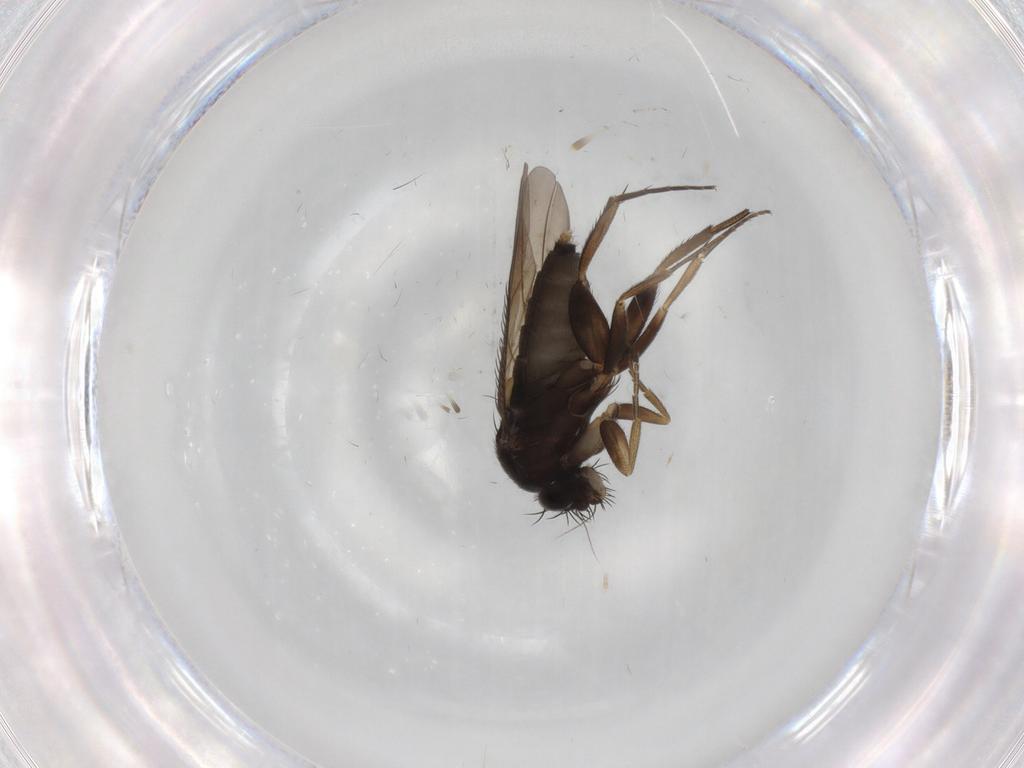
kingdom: Animalia
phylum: Arthropoda
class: Insecta
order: Diptera
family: Phoridae
